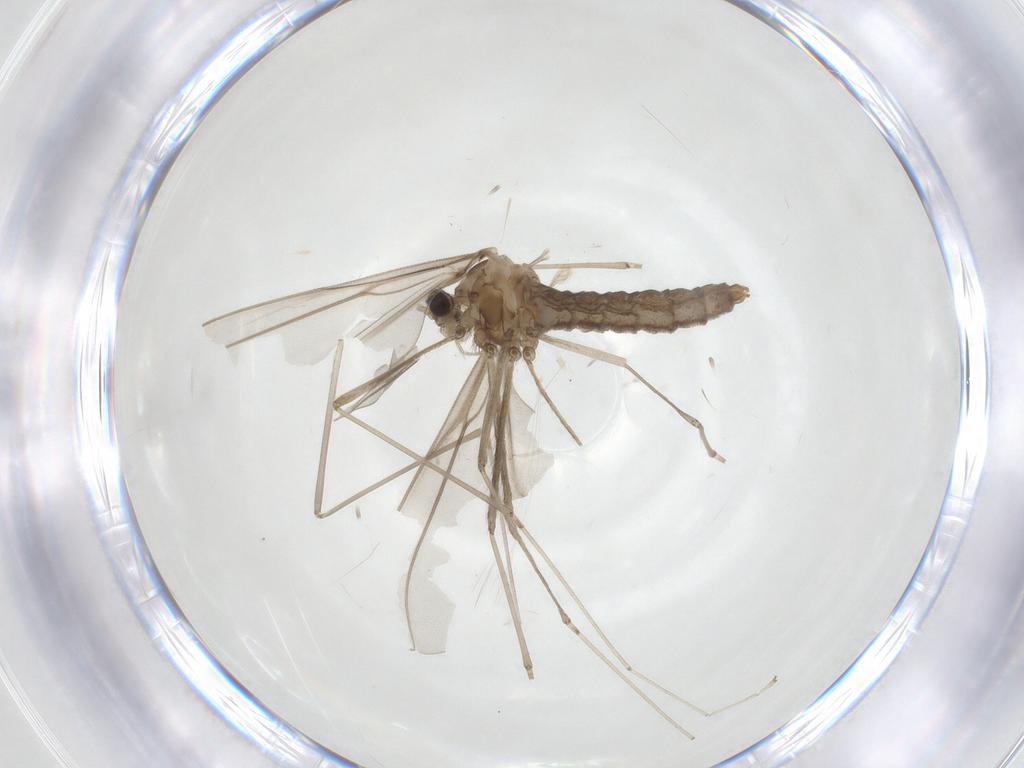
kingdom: Animalia
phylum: Arthropoda
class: Insecta
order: Diptera
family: Cecidomyiidae
